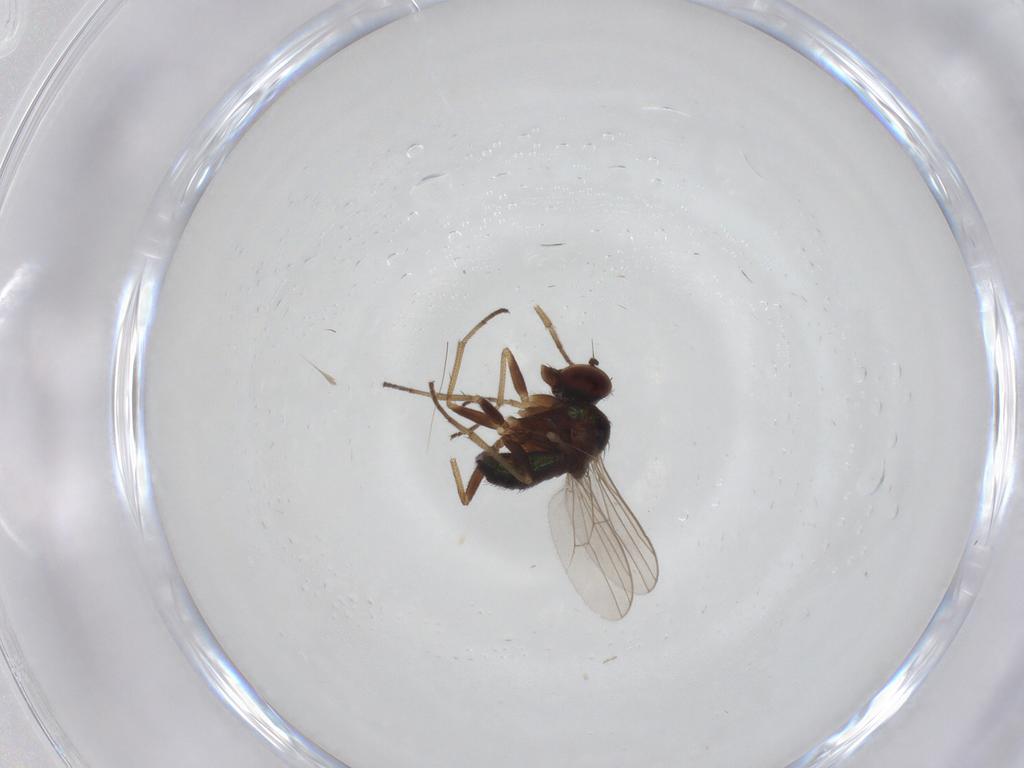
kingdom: Animalia
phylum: Arthropoda
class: Insecta
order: Diptera
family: Dolichopodidae
